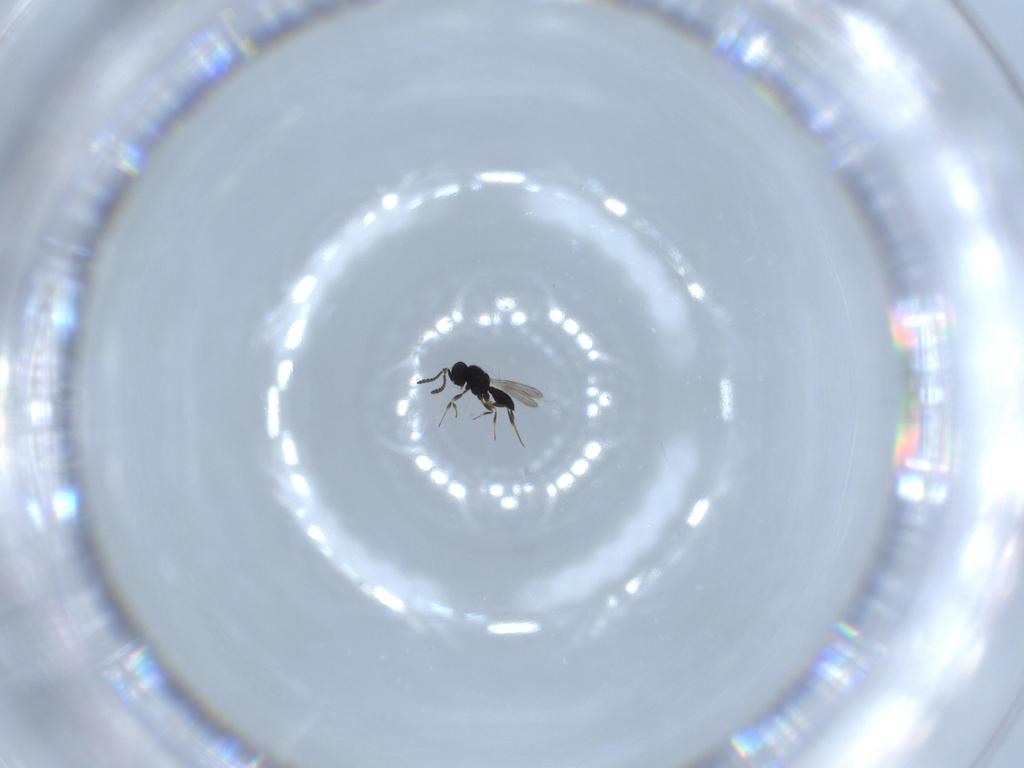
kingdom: Animalia
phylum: Arthropoda
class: Insecta
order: Hymenoptera
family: Scelionidae
